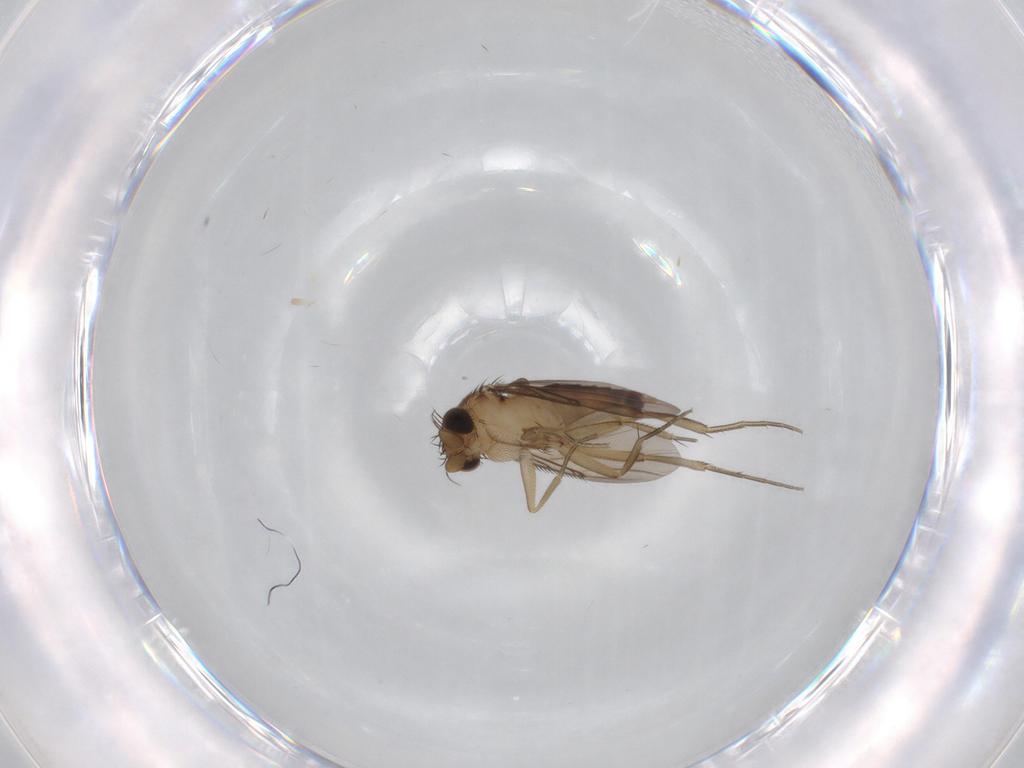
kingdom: Animalia
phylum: Arthropoda
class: Insecta
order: Diptera
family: Phoridae
